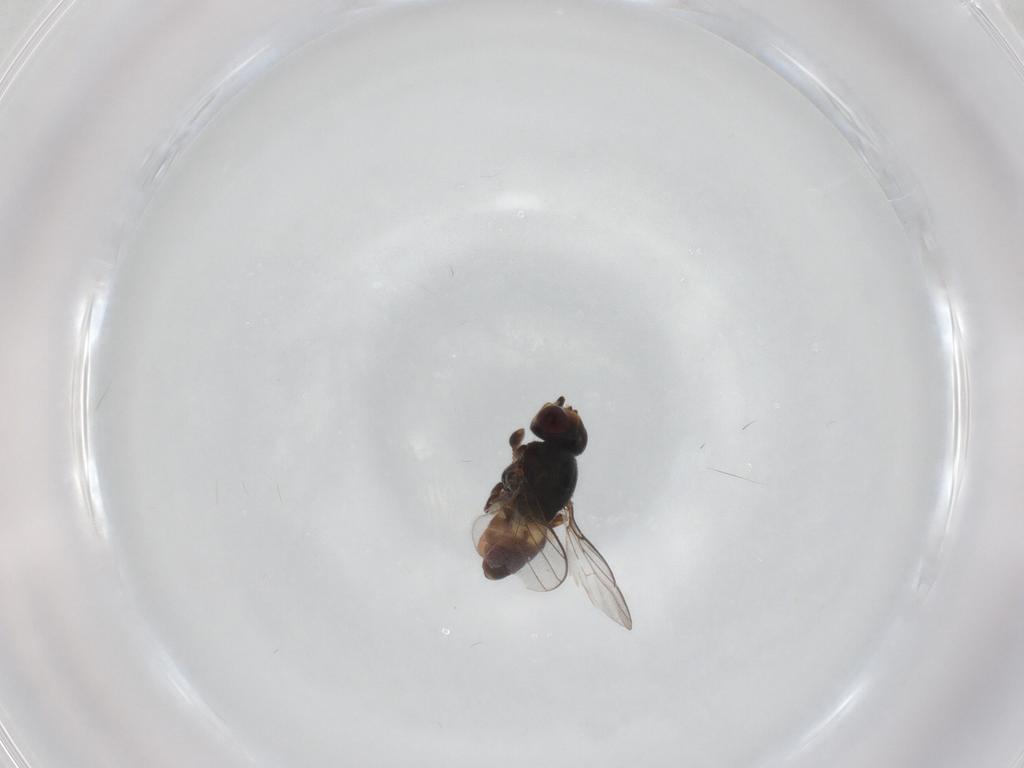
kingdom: Animalia
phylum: Arthropoda
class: Insecta
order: Diptera
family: Chloropidae
